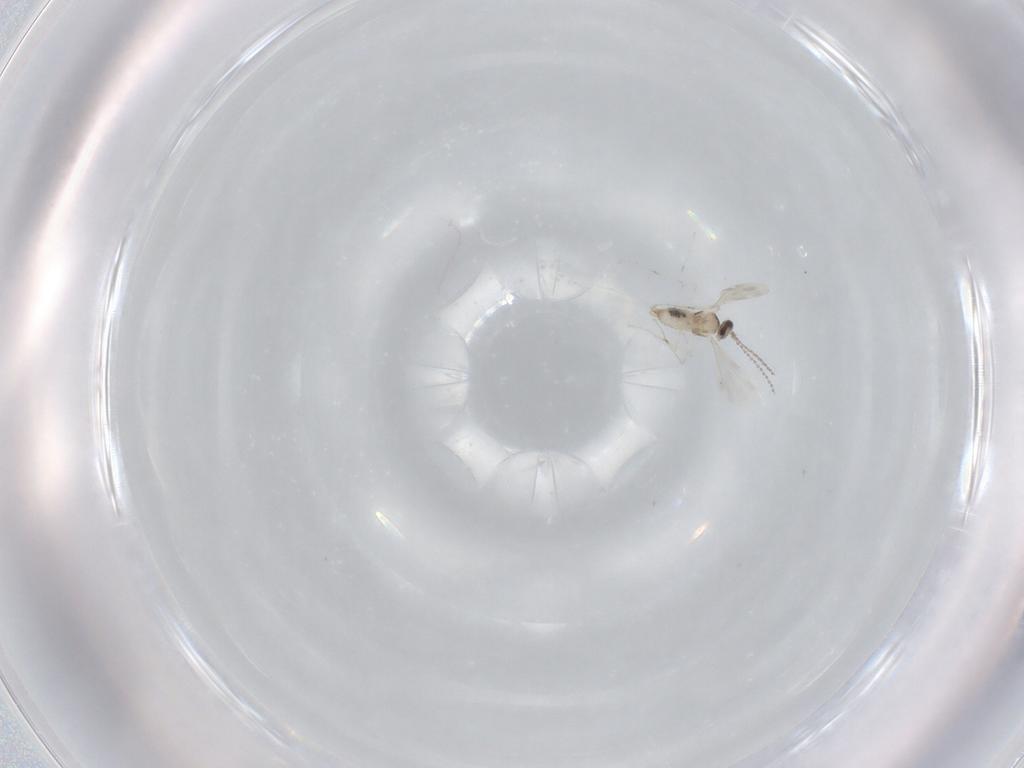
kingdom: Animalia
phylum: Arthropoda
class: Insecta
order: Diptera
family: Cecidomyiidae
